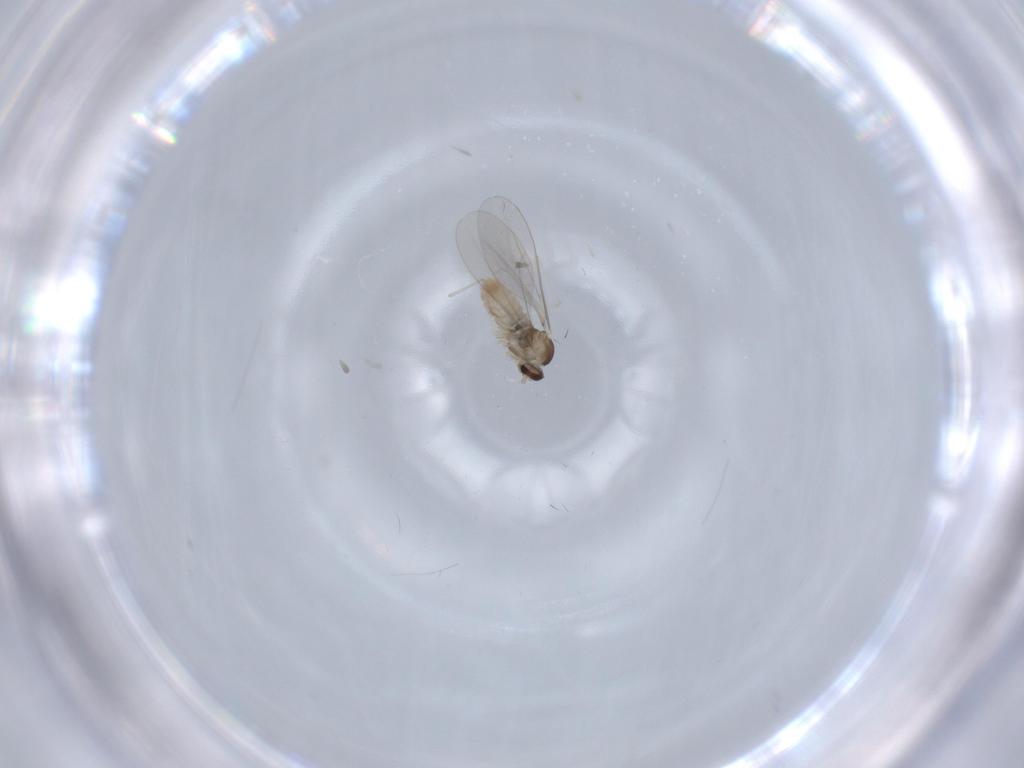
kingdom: Animalia
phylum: Arthropoda
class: Insecta
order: Diptera
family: Cecidomyiidae
